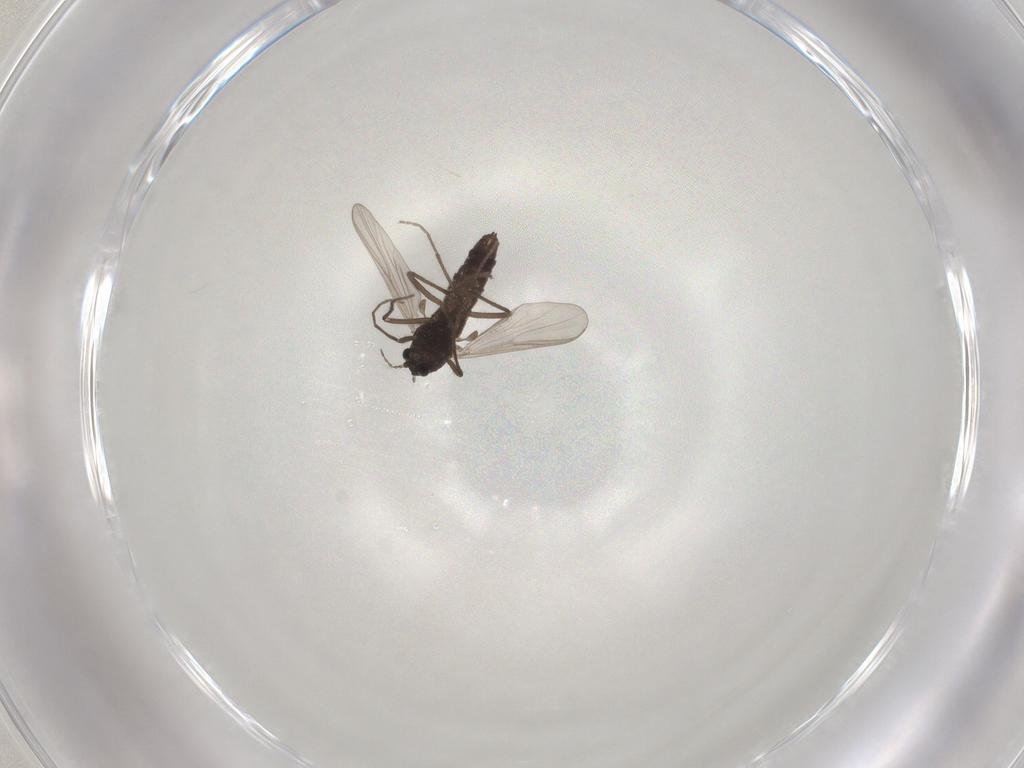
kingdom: Animalia
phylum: Arthropoda
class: Insecta
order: Diptera
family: Chironomidae
